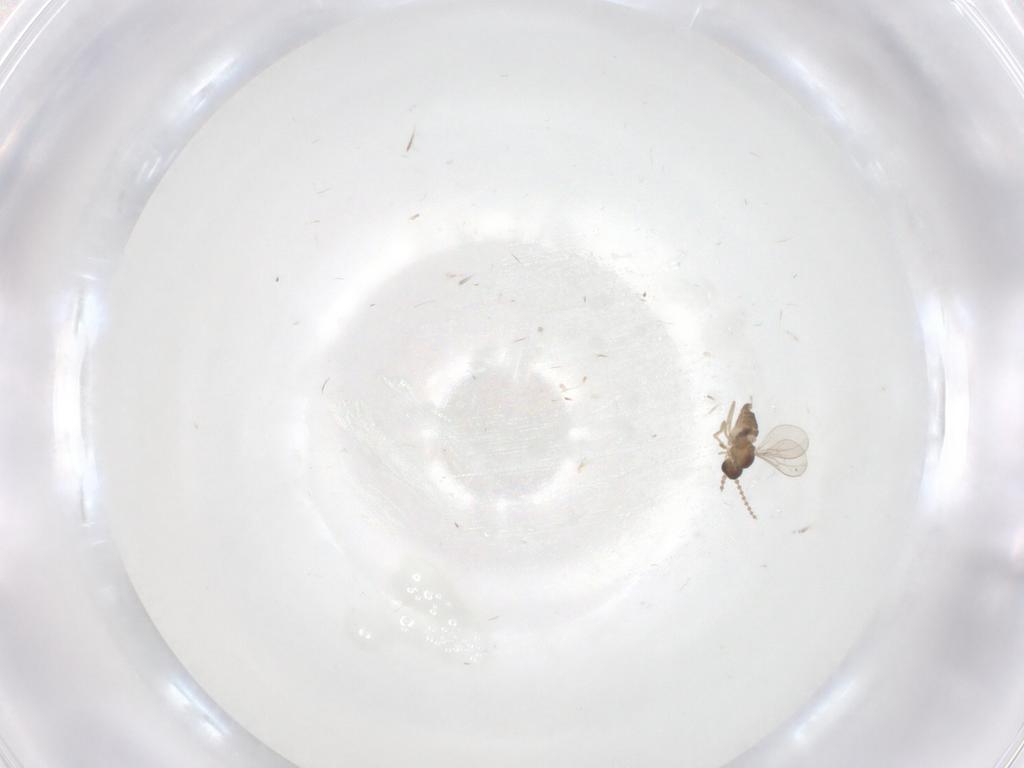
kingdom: Animalia
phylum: Arthropoda
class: Insecta
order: Diptera
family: Cecidomyiidae
